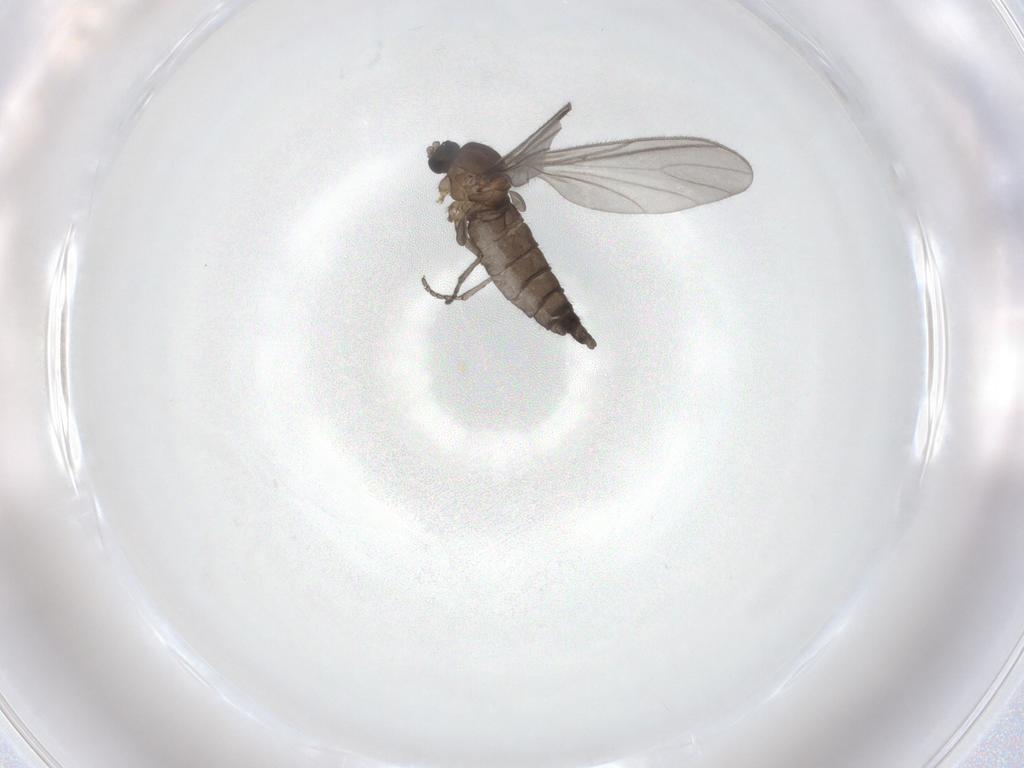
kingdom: Animalia
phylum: Arthropoda
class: Insecta
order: Diptera
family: Sciaridae
